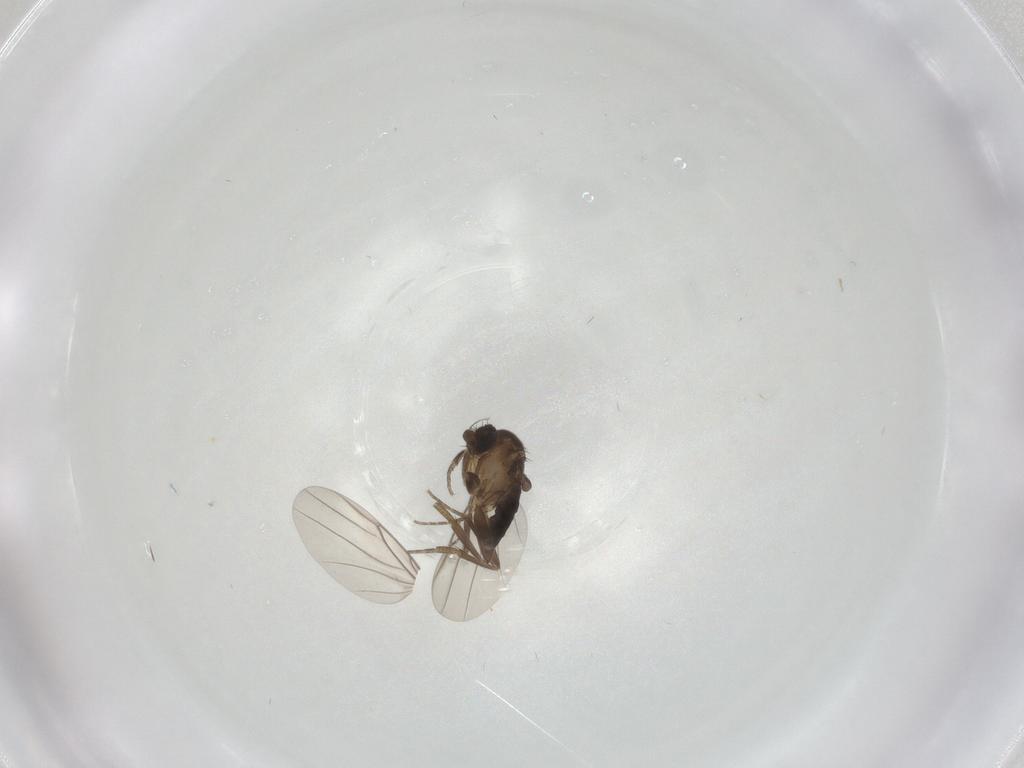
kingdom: Animalia
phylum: Arthropoda
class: Insecta
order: Diptera
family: Phoridae
